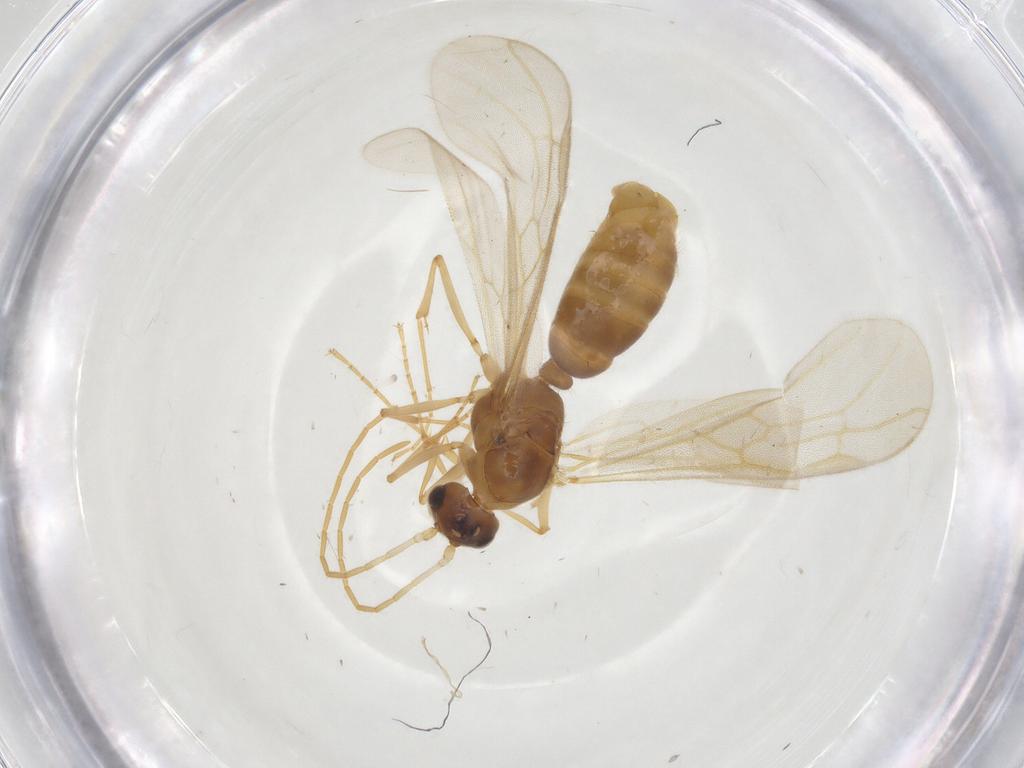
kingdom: Animalia
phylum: Arthropoda
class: Insecta
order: Hymenoptera
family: Formicidae
